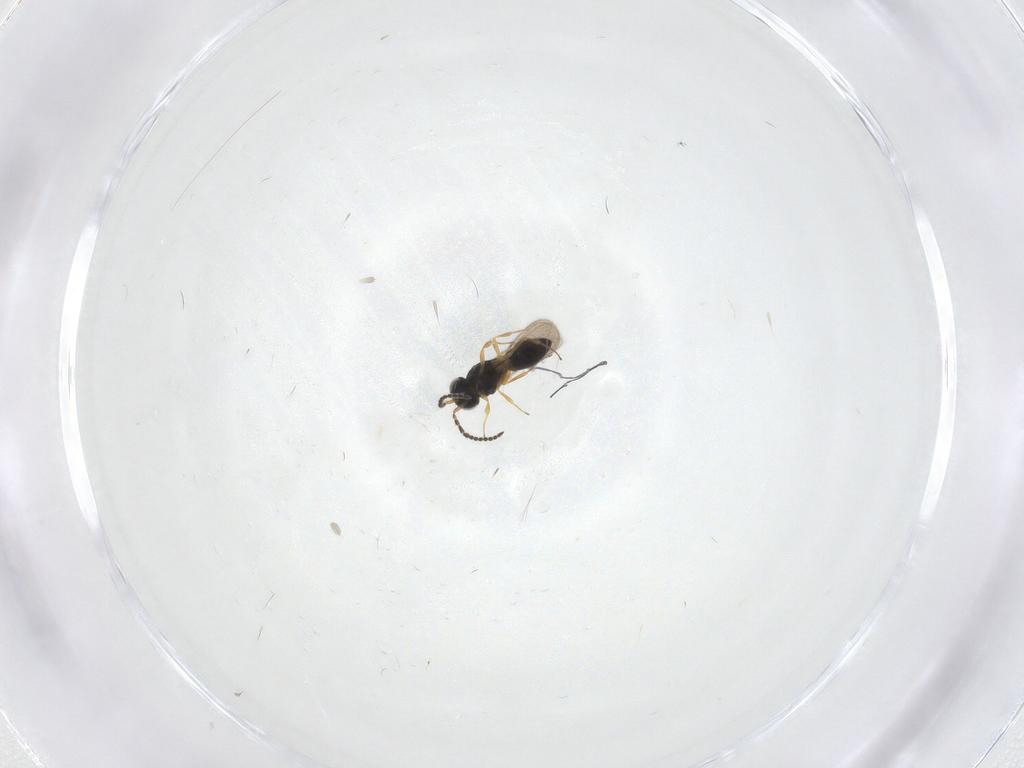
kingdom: Animalia
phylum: Arthropoda
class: Insecta
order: Hymenoptera
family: Scelionidae
